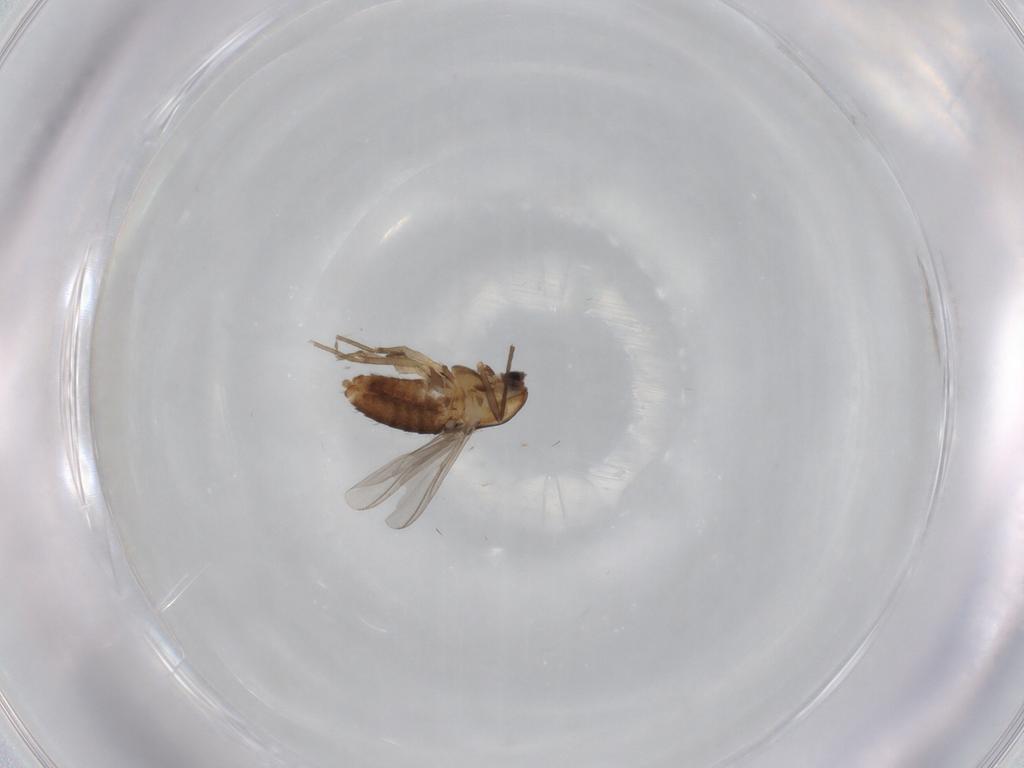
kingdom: Animalia
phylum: Arthropoda
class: Insecta
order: Diptera
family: Chironomidae
